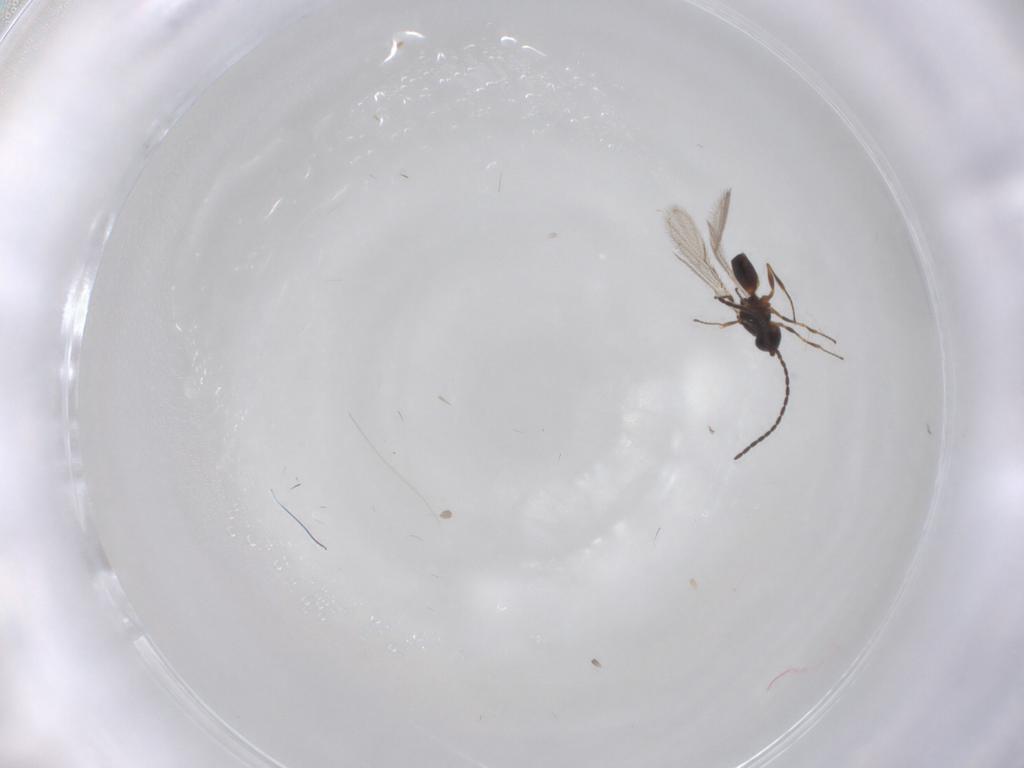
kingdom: Animalia
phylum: Arthropoda
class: Insecta
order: Hymenoptera
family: Figitidae
